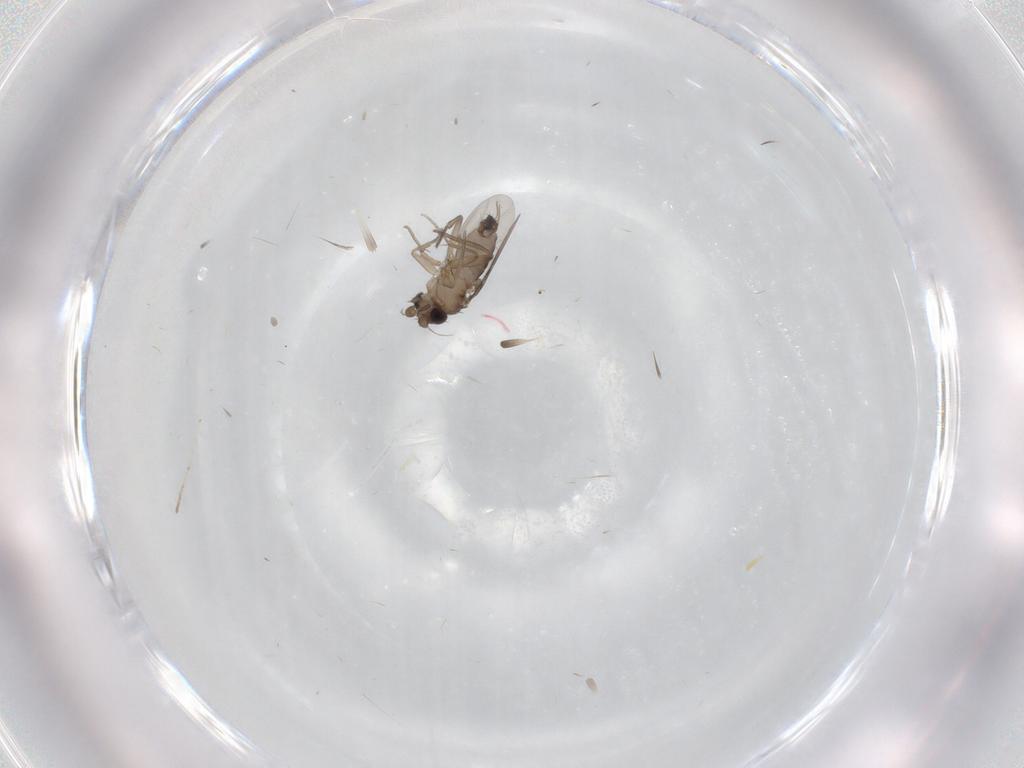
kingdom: Animalia
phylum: Arthropoda
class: Insecta
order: Diptera
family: Phoridae
